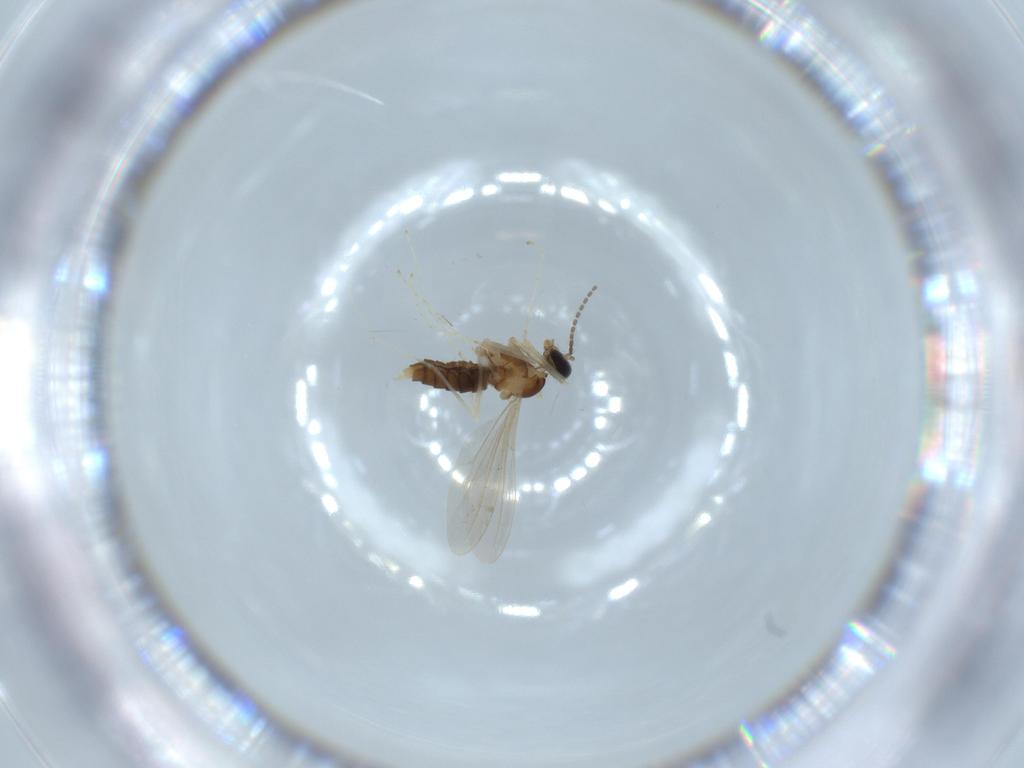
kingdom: Animalia
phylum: Arthropoda
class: Insecta
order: Diptera
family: Cecidomyiidae
